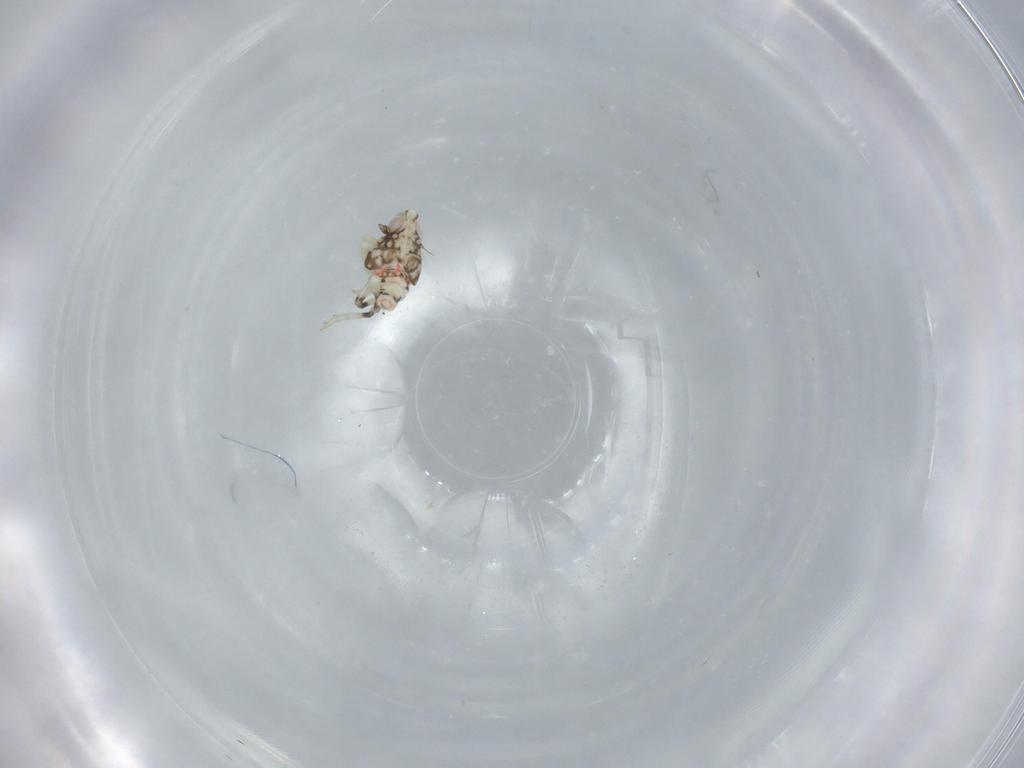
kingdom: Animalia
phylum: Arthropoda
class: Insecta
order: Hemiptera
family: Nogodinidae
